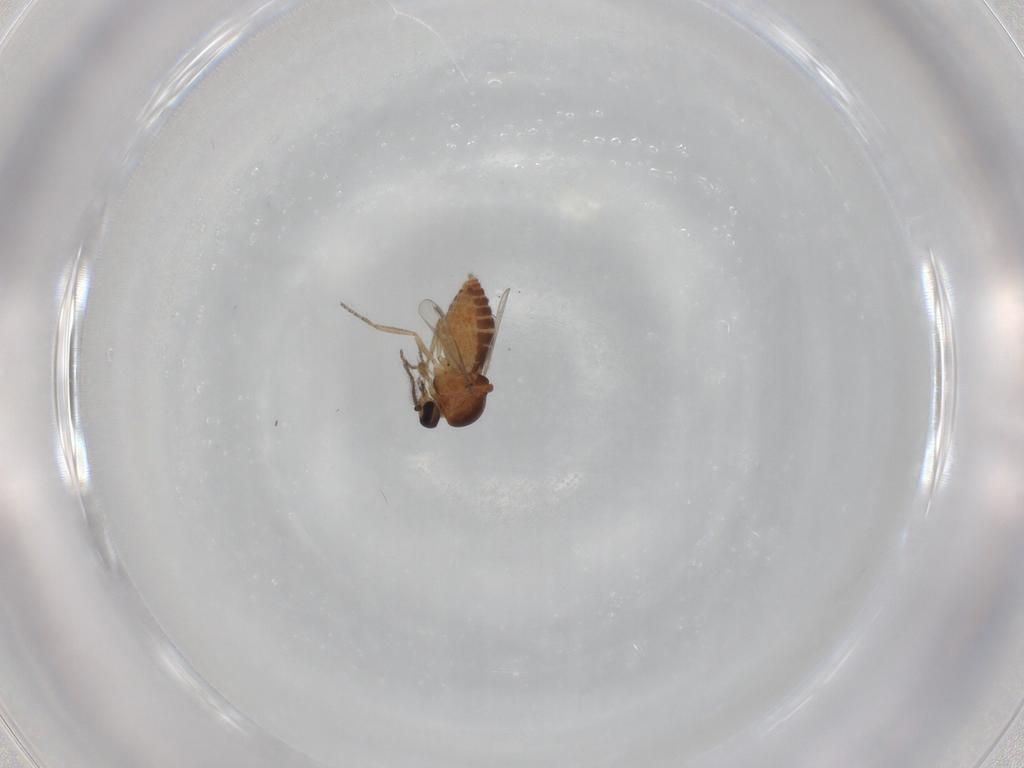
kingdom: Animalia
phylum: Arthropoda
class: Insecta
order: Diptera
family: Ceratopogonidae
